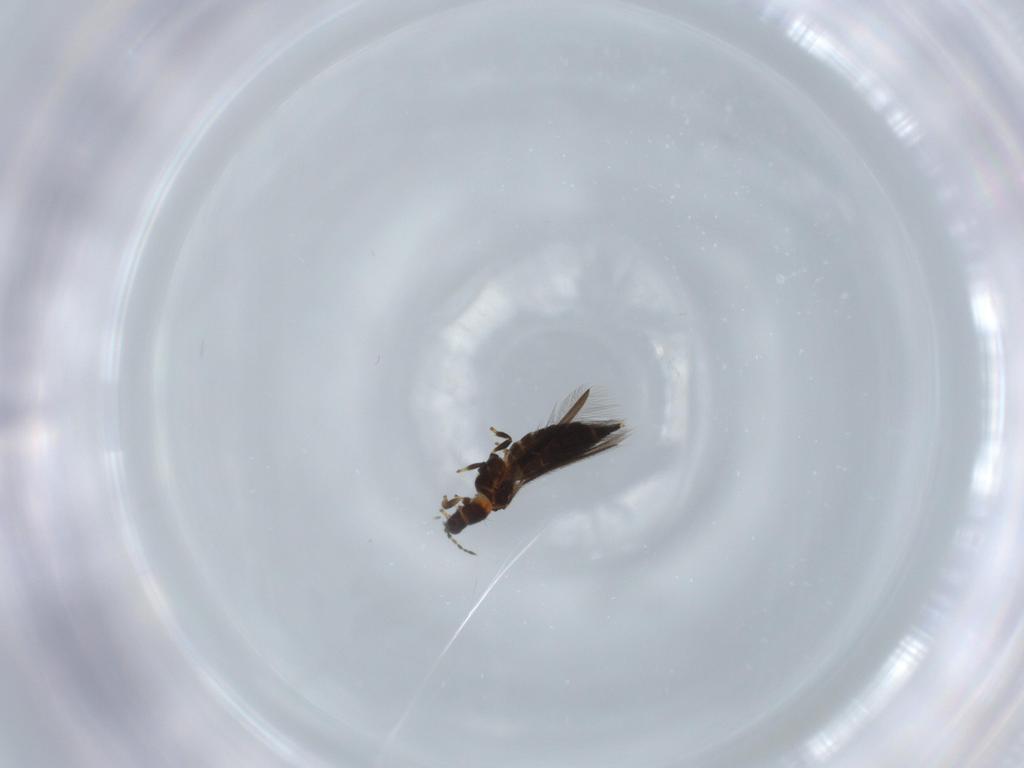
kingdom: Animalia
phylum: Arthropoda
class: Insecta
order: Thysanoptera
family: Thripidae
